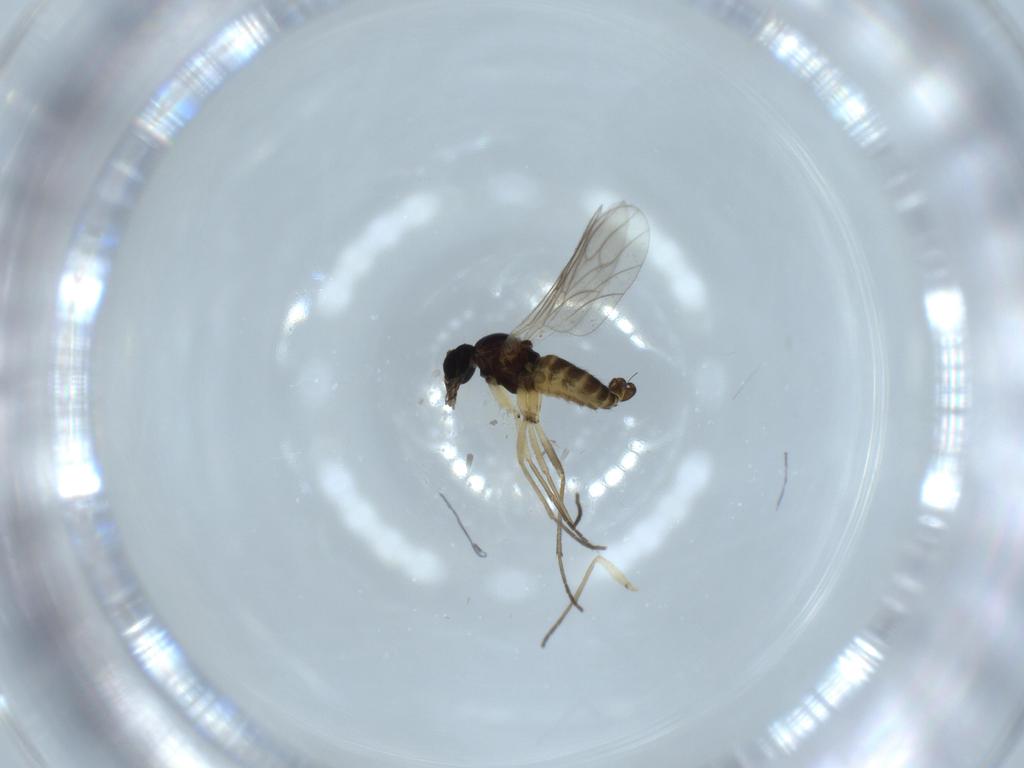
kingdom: Animalia
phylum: Arthropoda
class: Insecta
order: Diptera
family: Sciaridae
